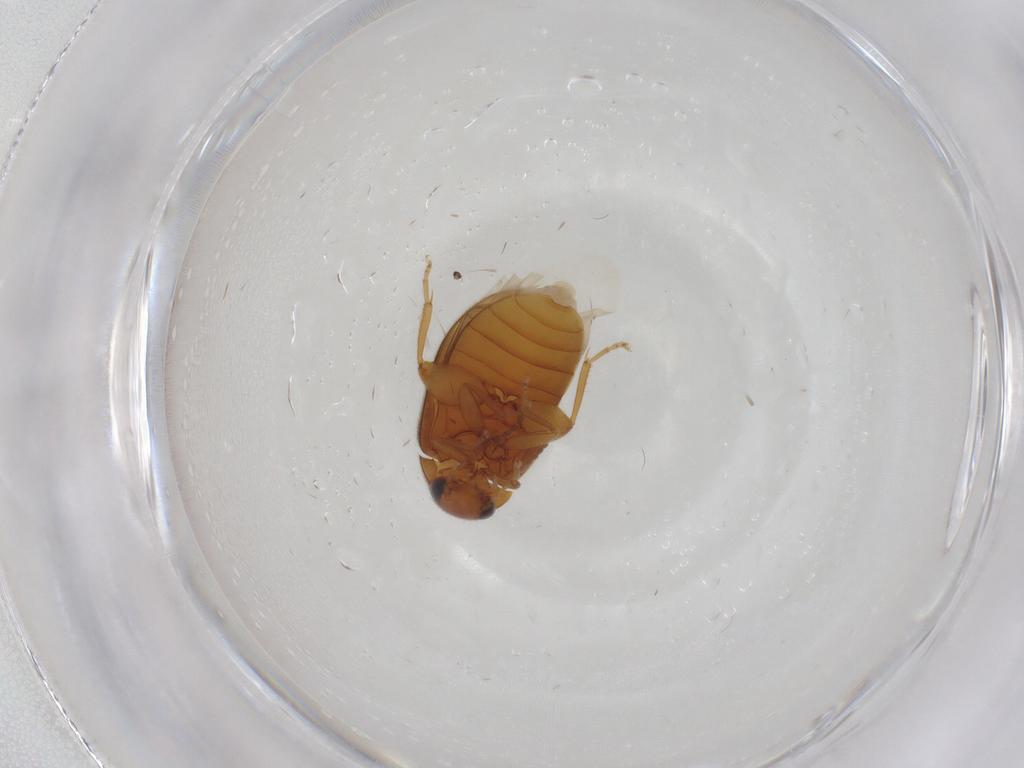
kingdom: Animalia
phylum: Arthropoda
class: Insecta
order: Coleoptera
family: Scirtidae
